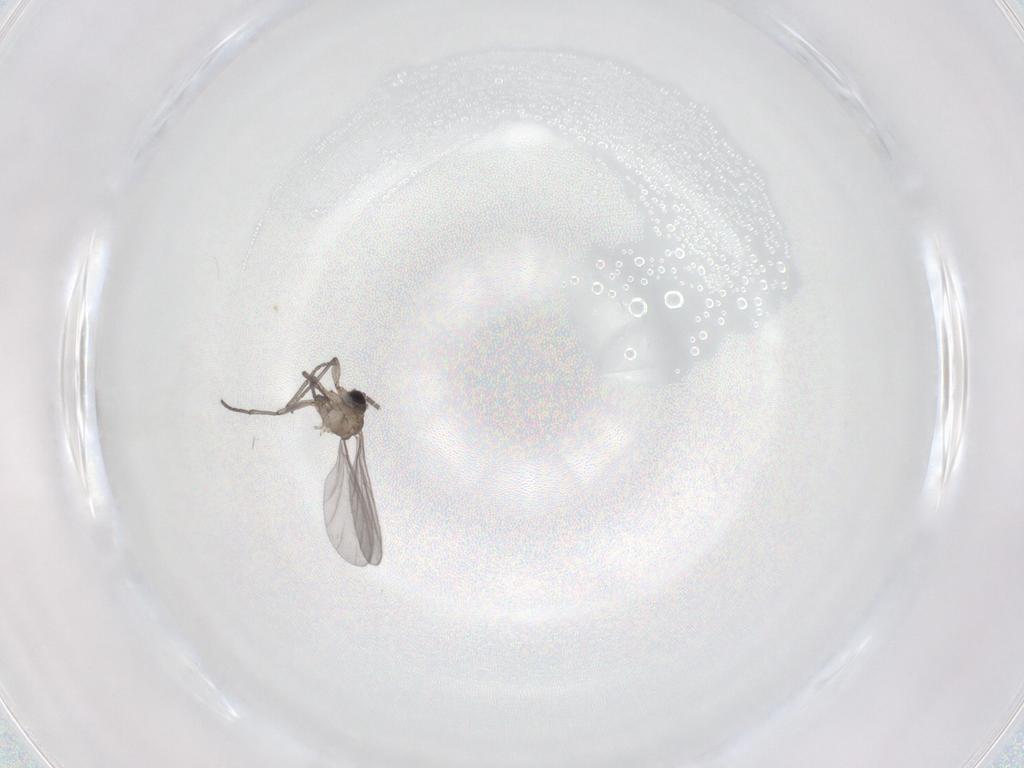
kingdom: Animalia
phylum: Arthropoda
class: Insecta
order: Diptera
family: Sciaridae
